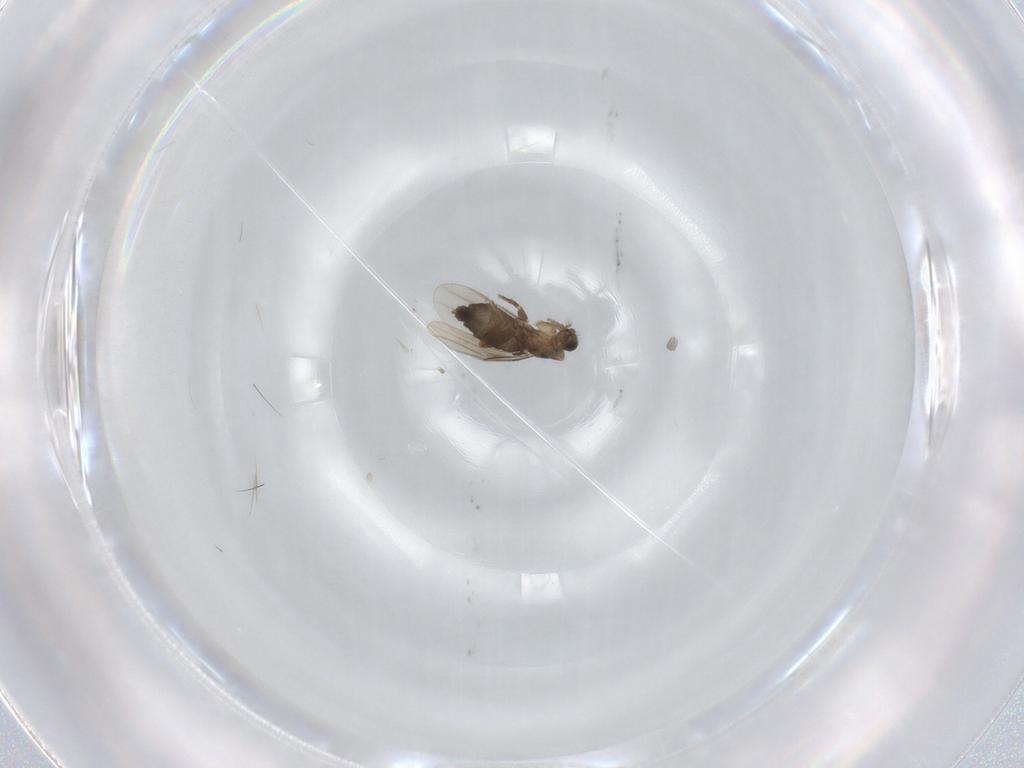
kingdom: Animalia
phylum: Arthropoda
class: Insecta
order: Diptera
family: Phoridae
